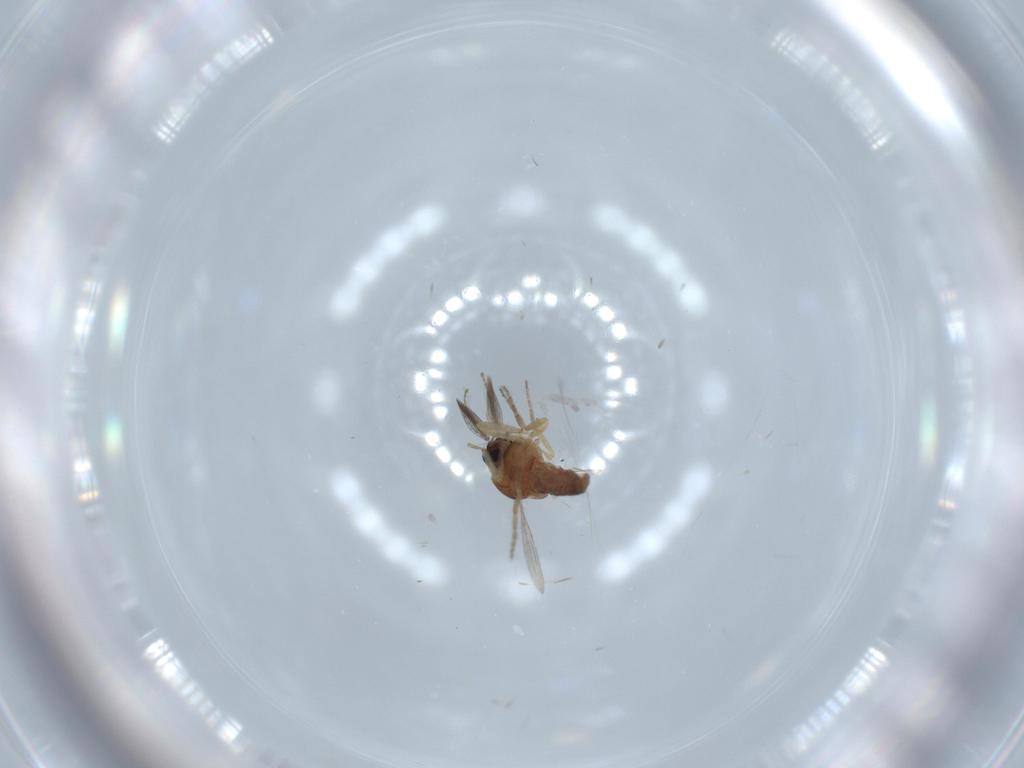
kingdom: Animalia
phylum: Arthropoda
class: Insecta
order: Diptera
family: Ceratopogonidae
